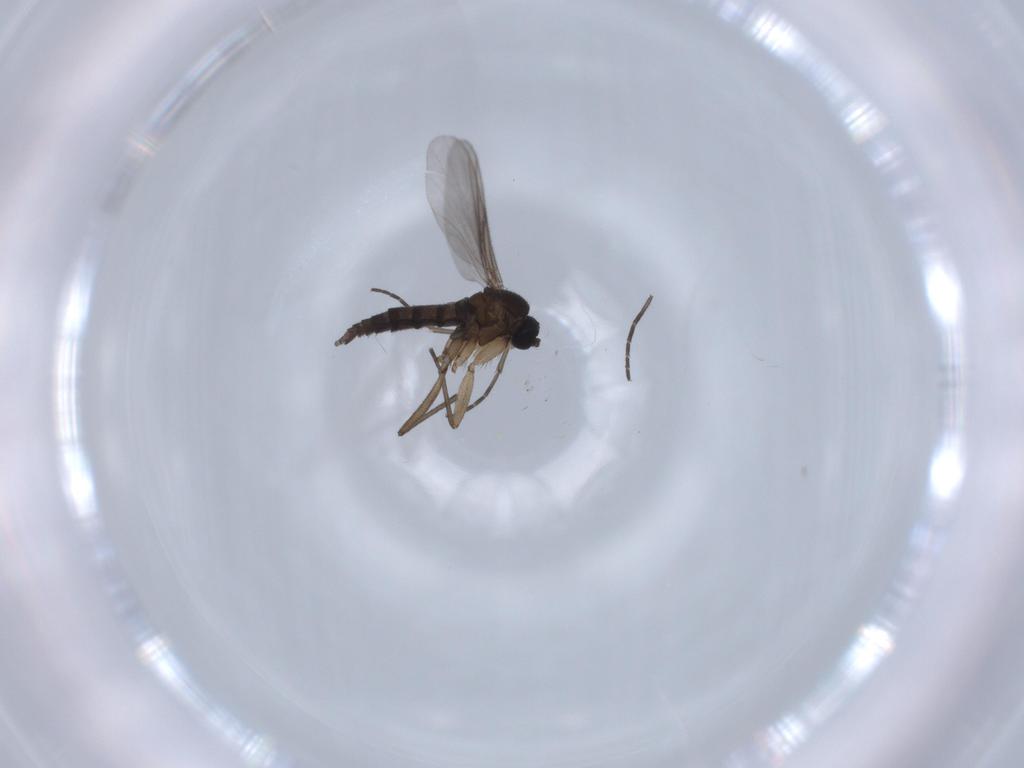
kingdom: Animalia
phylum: Arthropoda
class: Insecta
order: Diptera
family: Sciaridae
